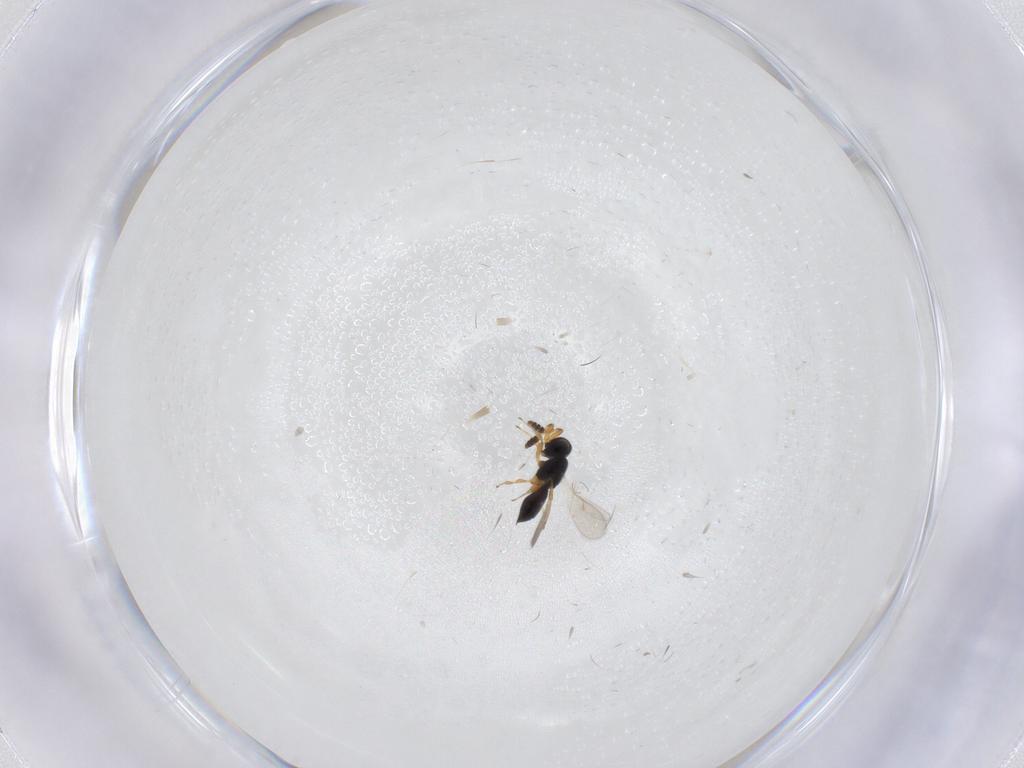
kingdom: Animalia
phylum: Arthropoda
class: Insecta
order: Hymenoptera
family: Scelionidae
